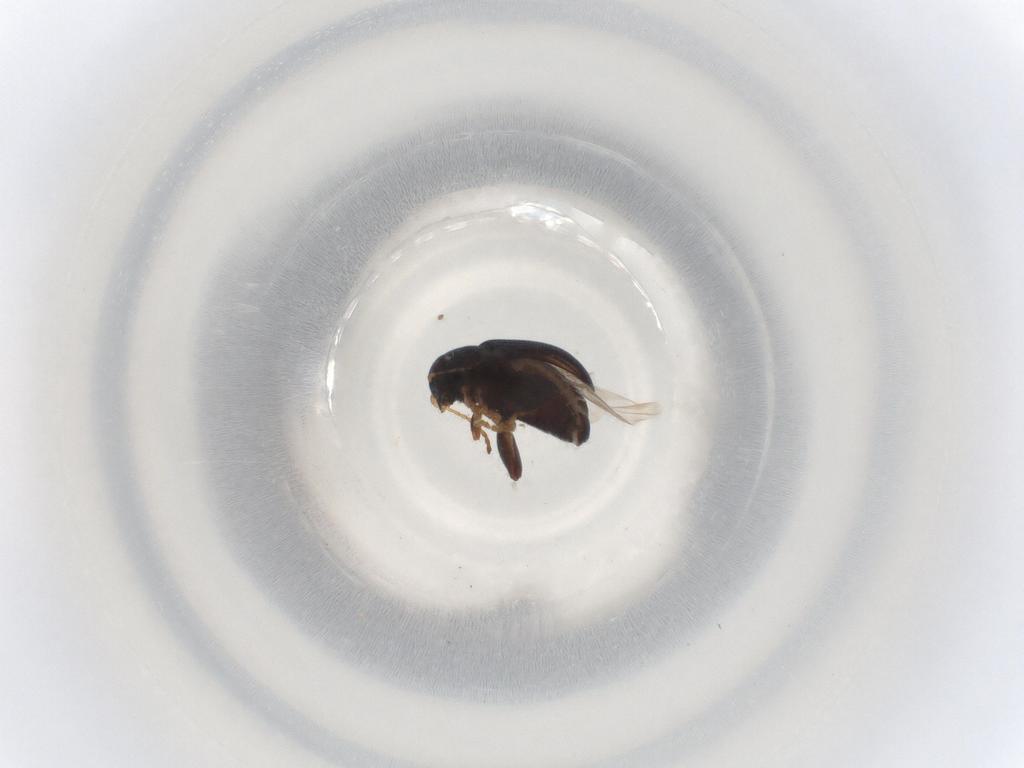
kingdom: Animalia
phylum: Arthropoda
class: Insecta
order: Coleoptera
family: Chrysomelidae
